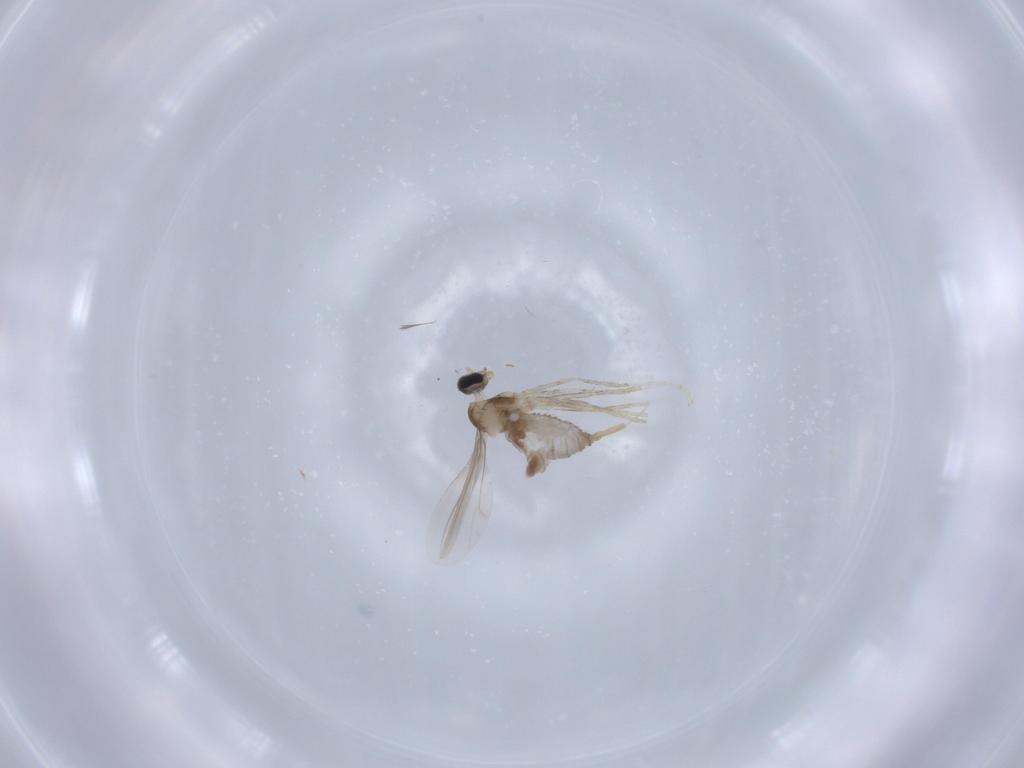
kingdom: Animalia
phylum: Arthropoda
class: Insecta
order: Diptera
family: Cecidomyiidae
